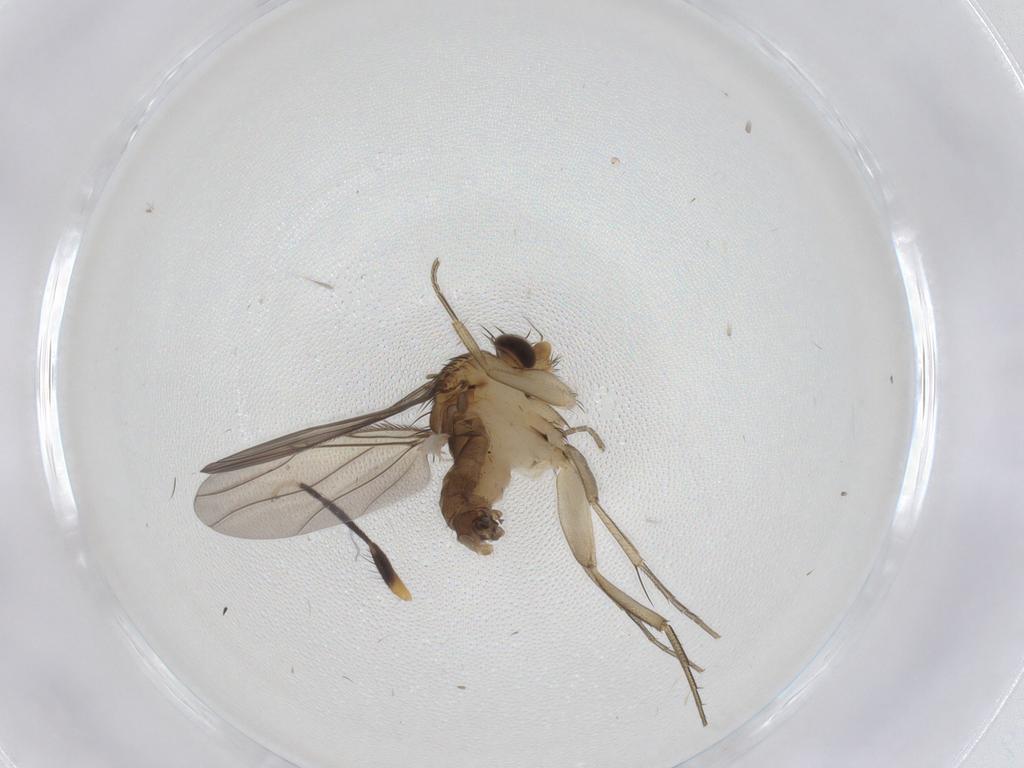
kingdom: Animalia
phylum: Arthropoda
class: Insecta
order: Diptera
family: Phoridae
